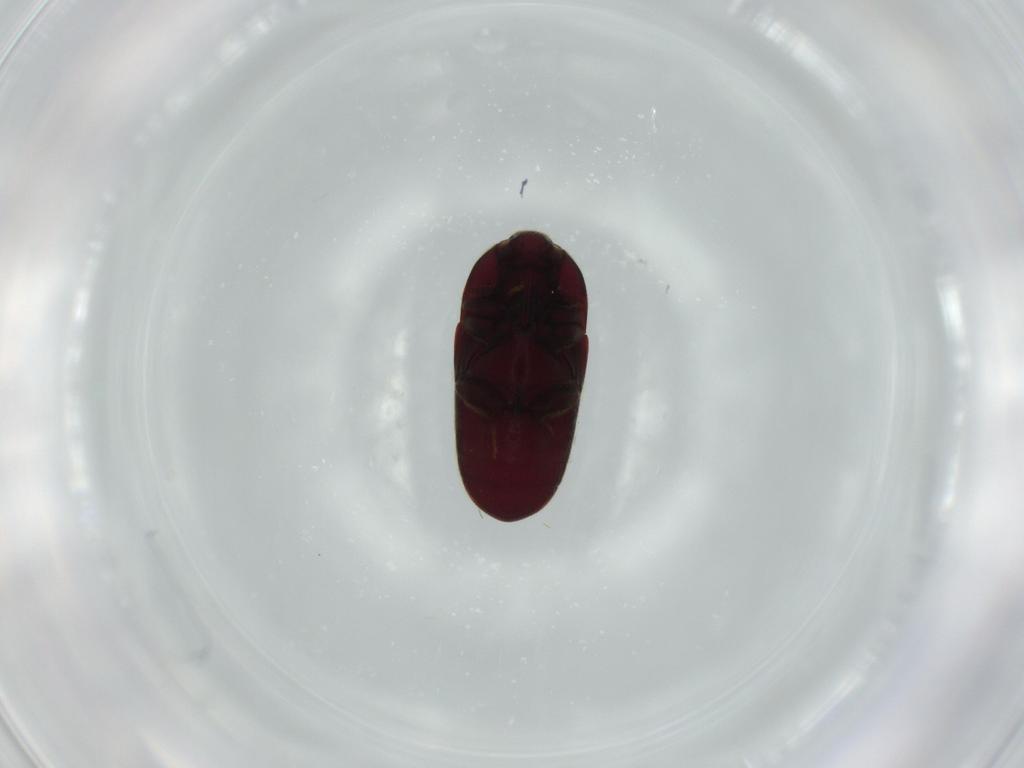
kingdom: Animalia
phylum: Arthropoda
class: Insecta
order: Coleoptera
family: Throscidae
